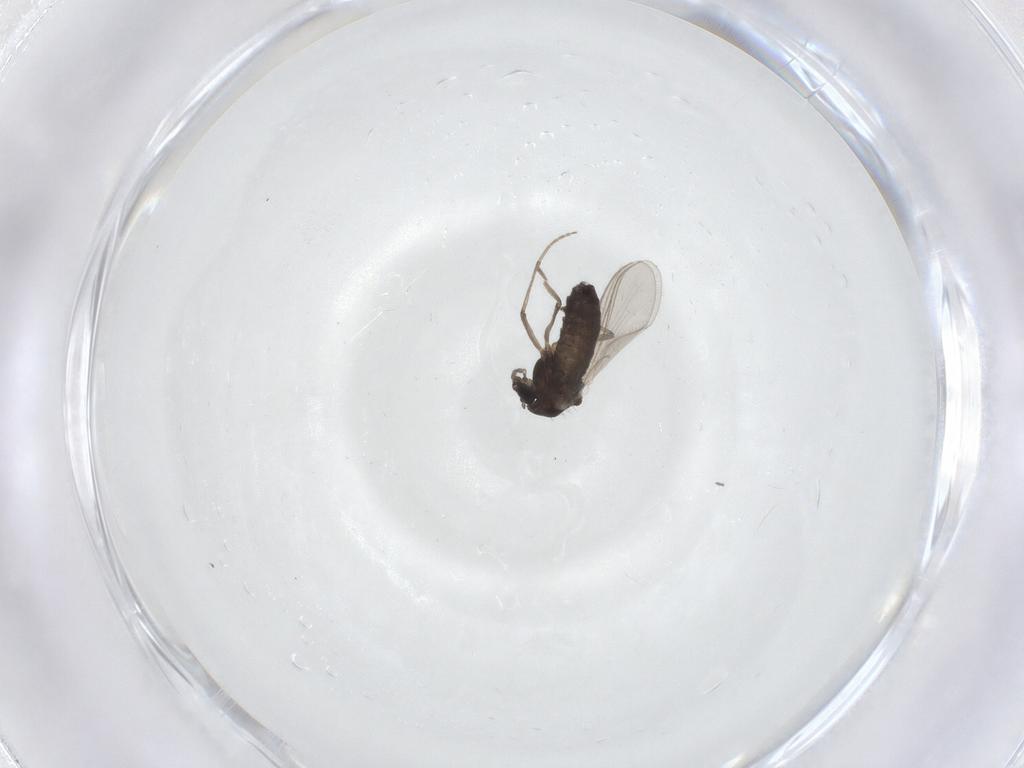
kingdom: Animalia
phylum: Arthropoda
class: Insecta
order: Diptera
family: Chironomidae
